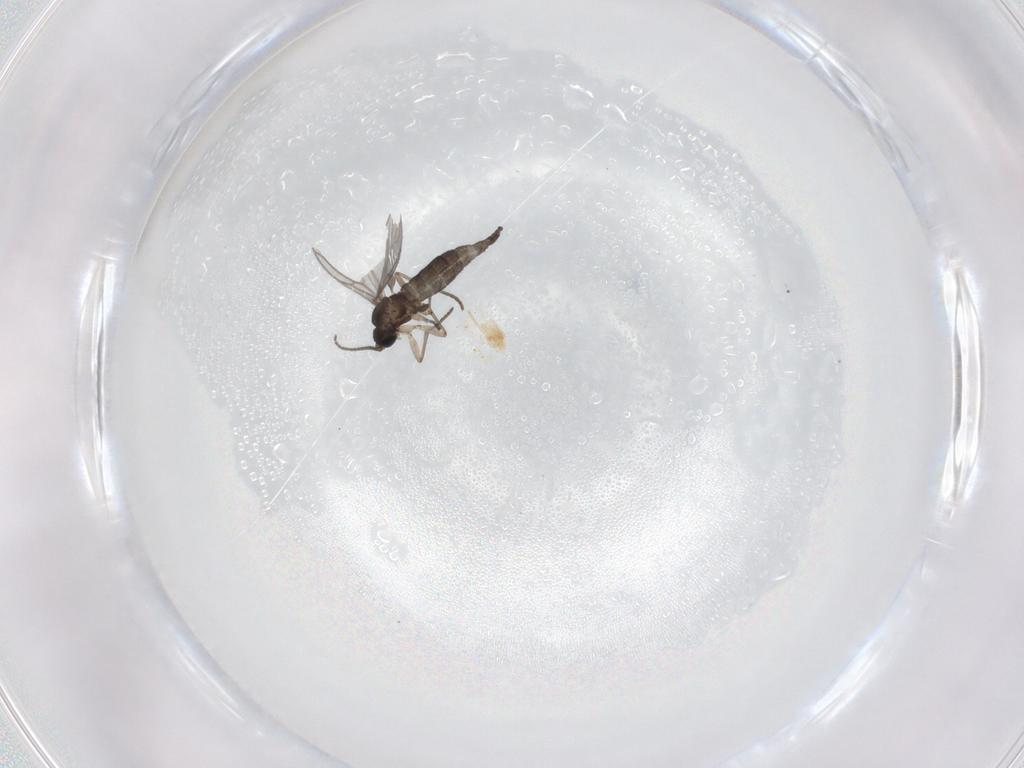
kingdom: Animalia
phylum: Arthropoda
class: Insecta
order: Diptera
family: Sciaridae
